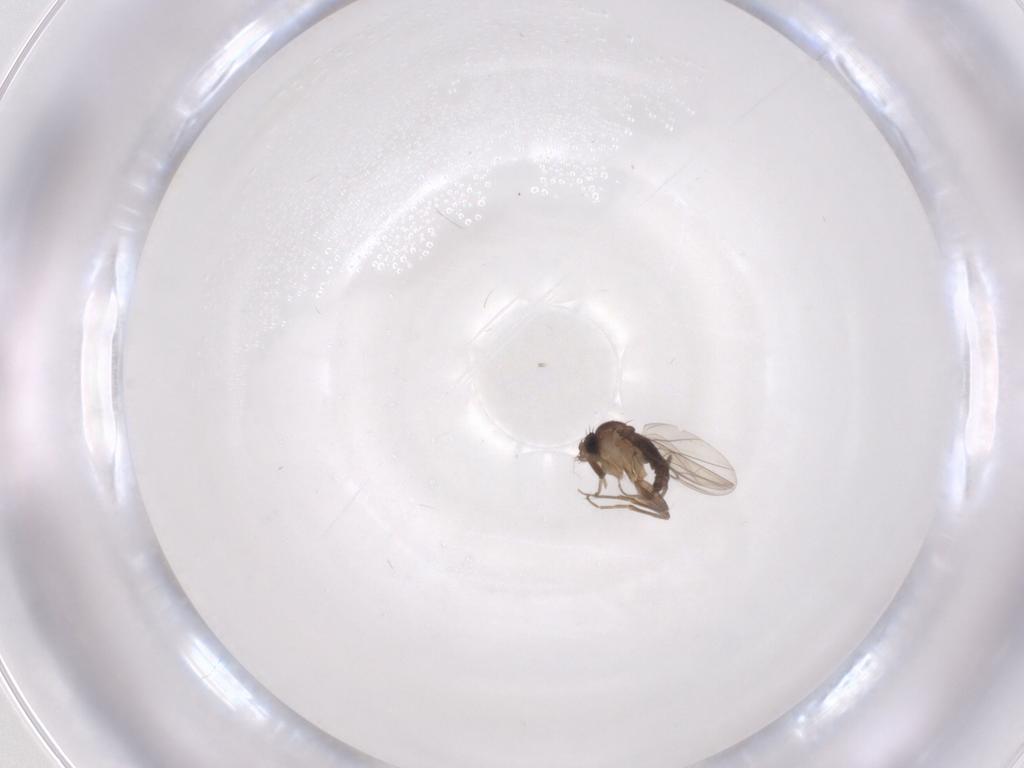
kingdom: Animalia
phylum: Arthropoda
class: Insecta
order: Diptera
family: Phoridae
